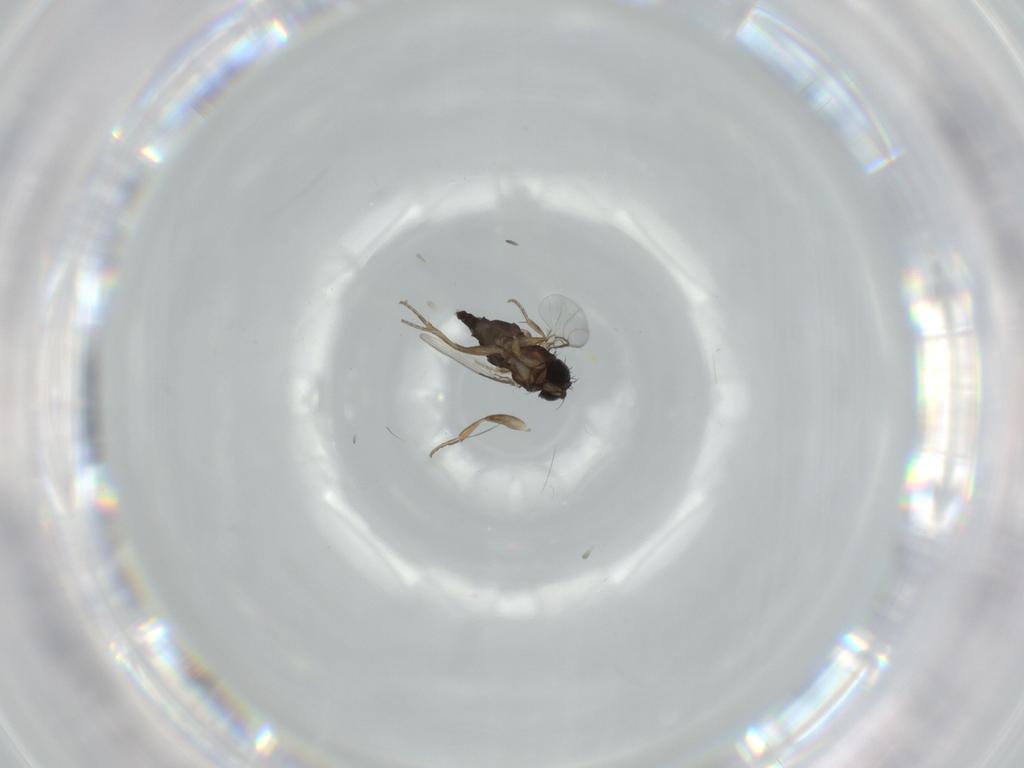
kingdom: Animalia
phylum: Arthropoda
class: Insecta
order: Diptera
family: Phoridae
